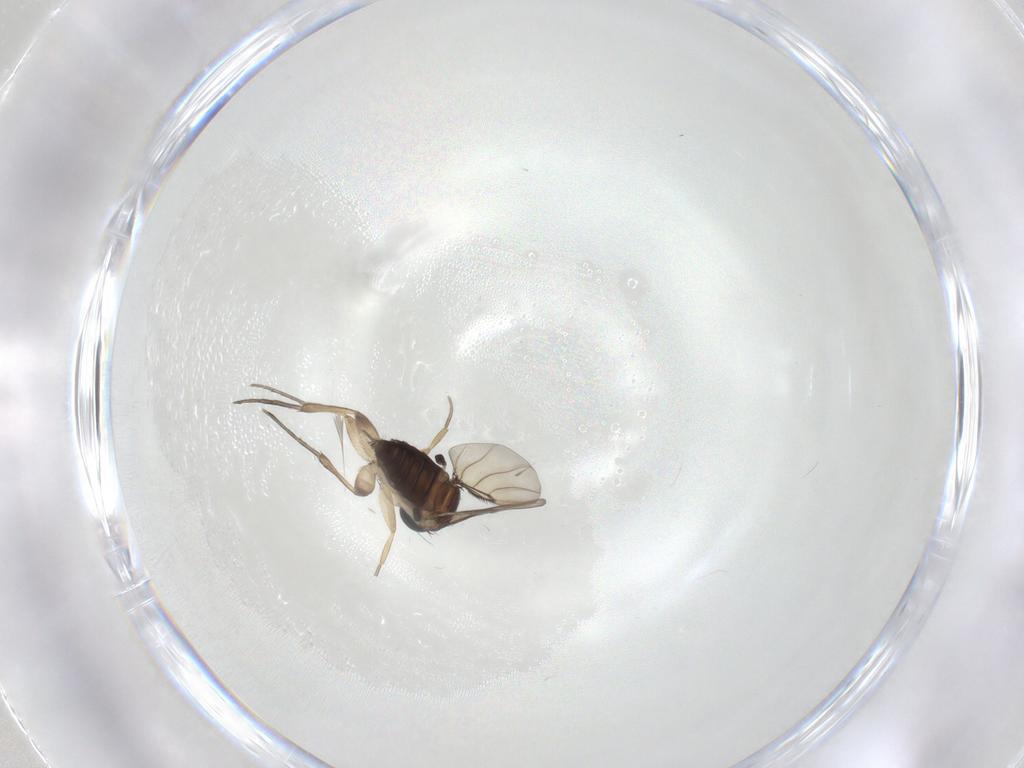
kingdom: Animalia
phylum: Arthropoda
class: Insecta
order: Diptera
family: Phoridae
